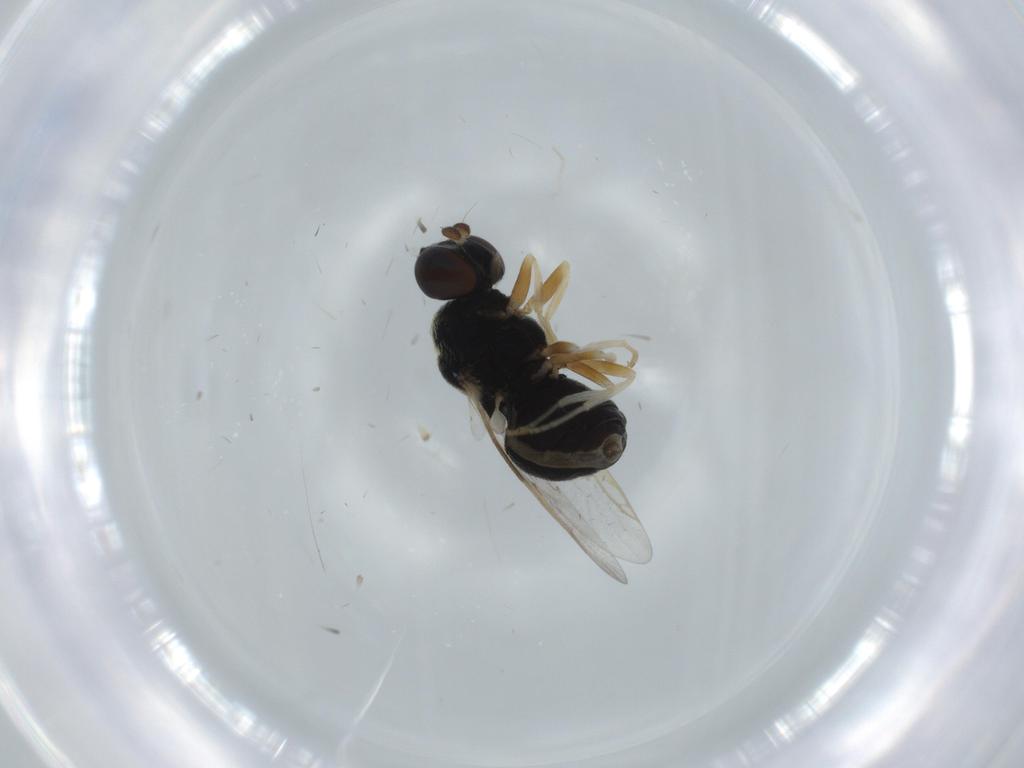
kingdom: Animalia
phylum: Arthropoda
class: Insecta
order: Diptera
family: Stratiomyidae
